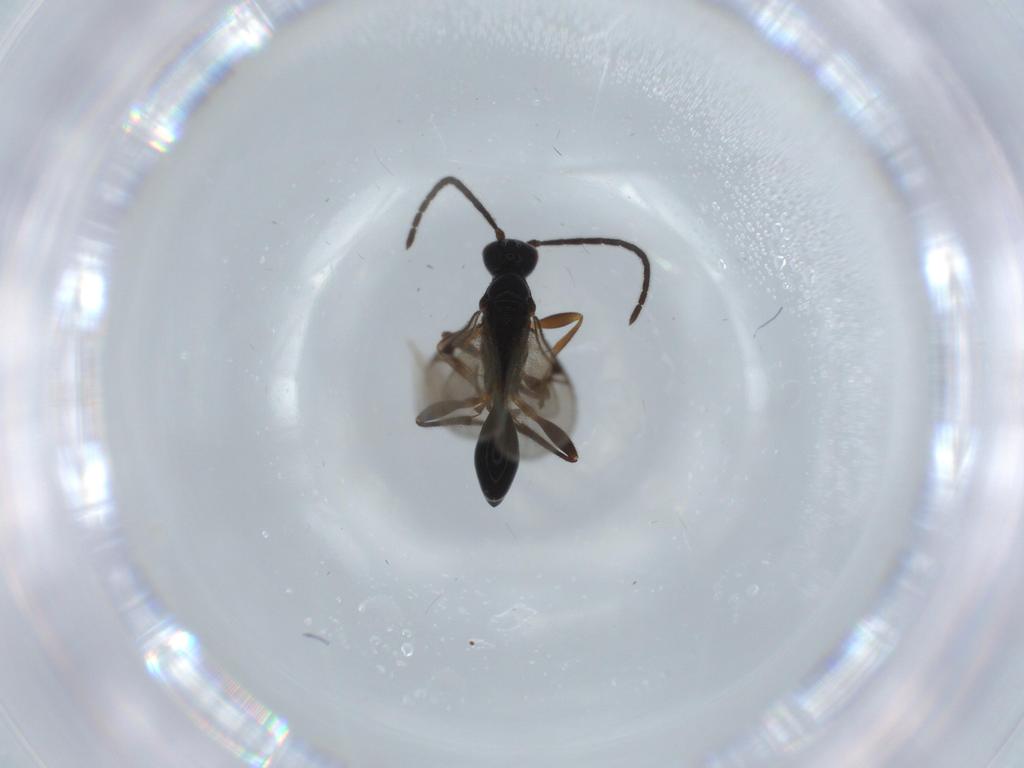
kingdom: Animalia
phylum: Arthropoda
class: Insecta
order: Hymenoptera
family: Proctotrupidae
